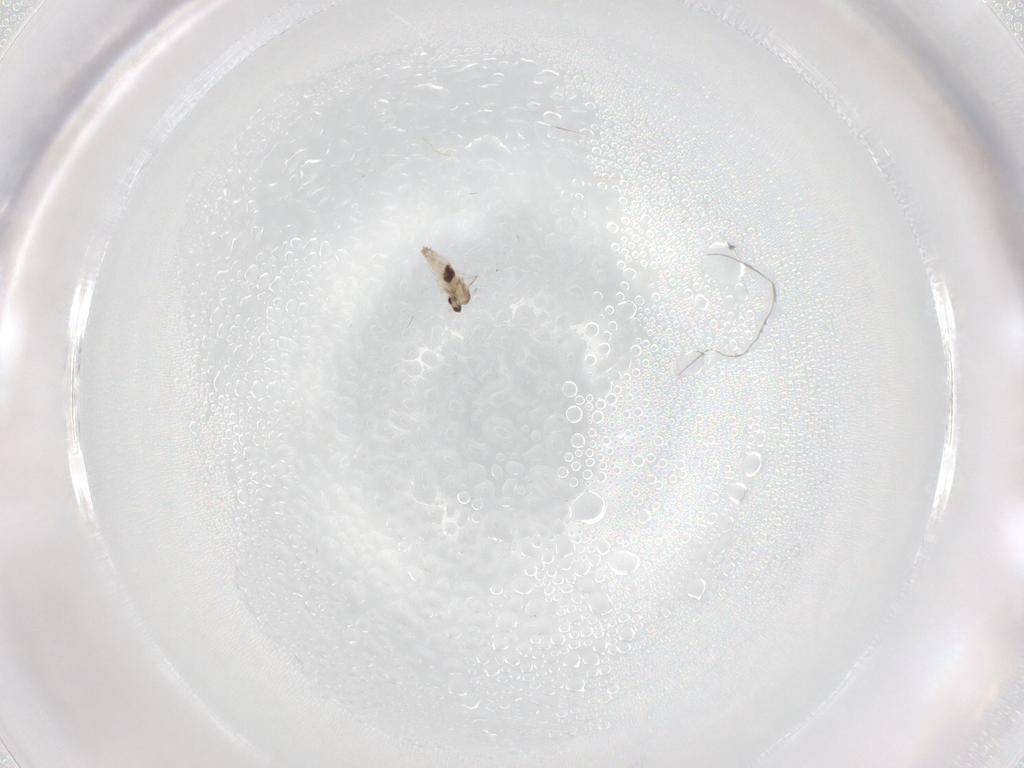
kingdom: Animalia
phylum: Arthropoda
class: Insecta
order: Diptera
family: Cecidomyiidae
